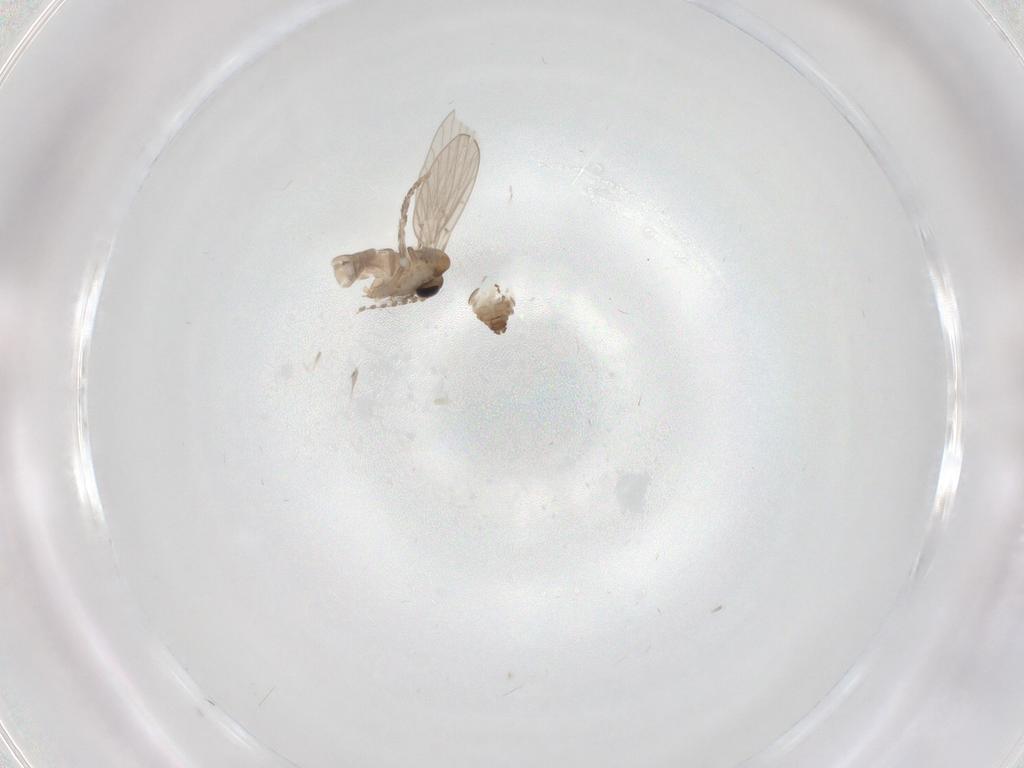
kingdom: Animalia
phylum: Arthropoda
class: Insecta
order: Diptera
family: Psychodidae
